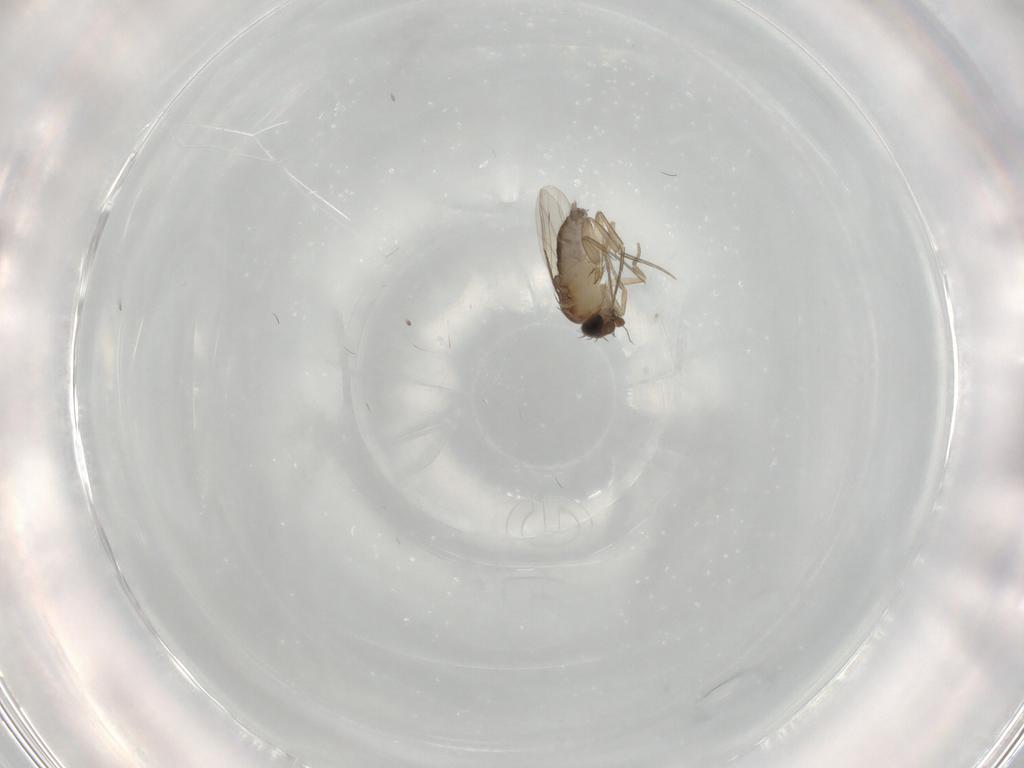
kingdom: Animalia
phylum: Arthropoda
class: Insecta
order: Diptera
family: Phoridae
